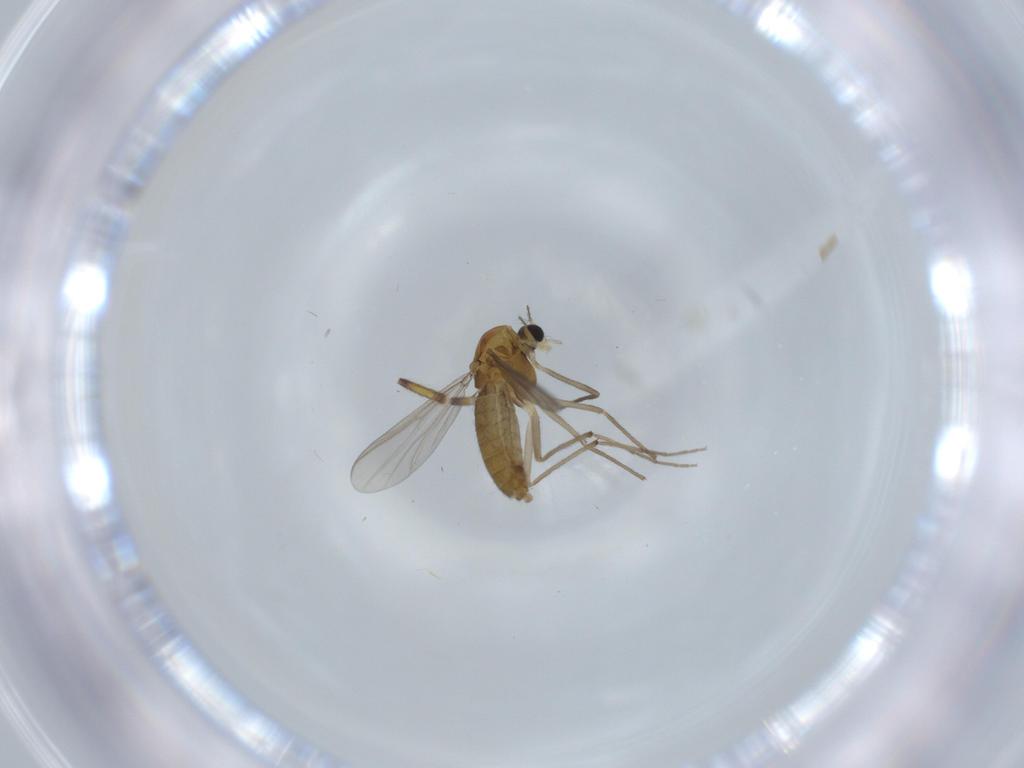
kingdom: Animalia
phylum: Arthropoda
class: Insecta
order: Diptera
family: Chironomidae
